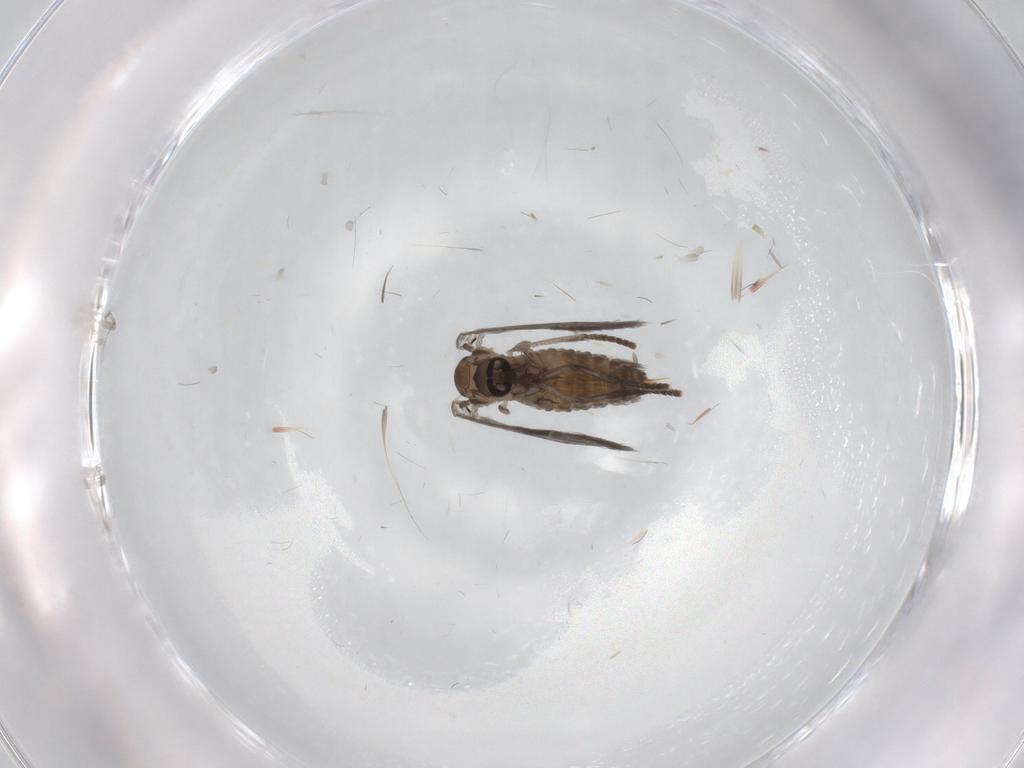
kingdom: Animalia
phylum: Arthropoda
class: Insecta
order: Diptera
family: Psychodidae
